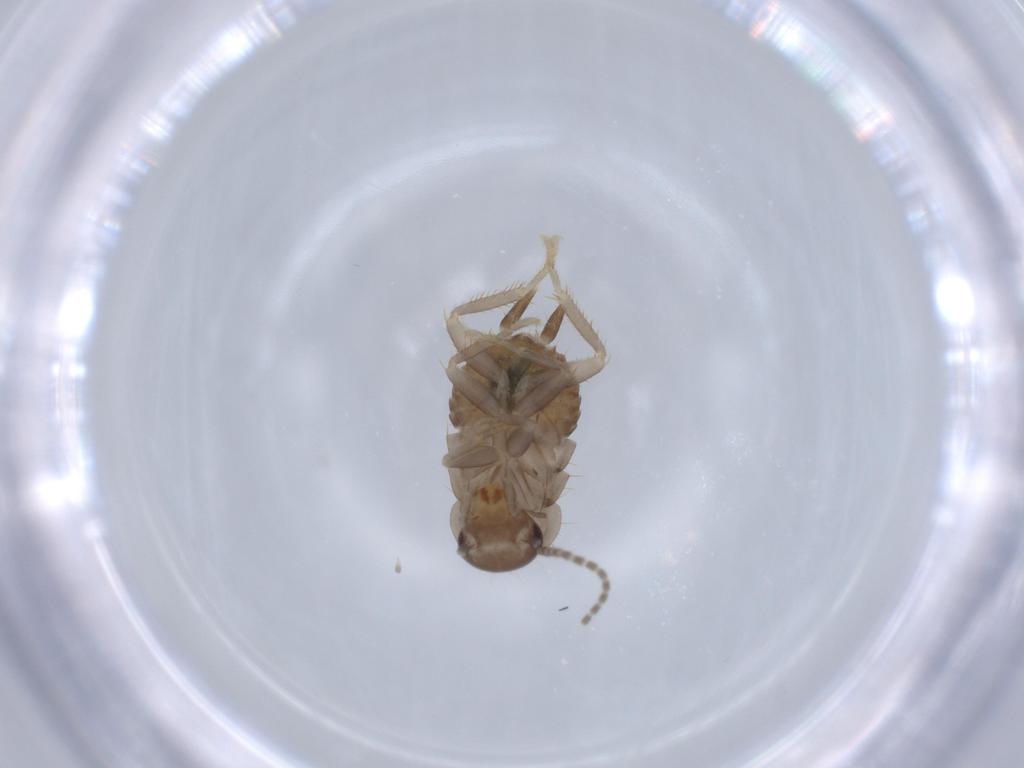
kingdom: Animalia
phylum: Arthropoda
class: Insecta
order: Blattodea
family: Ectobiidae
